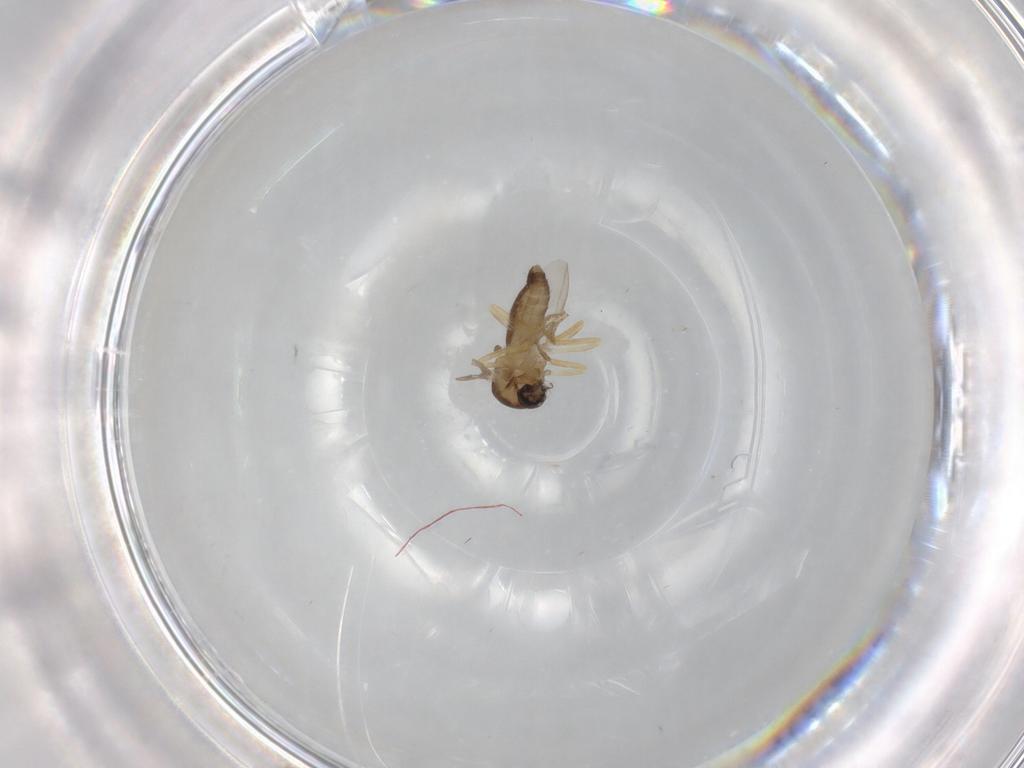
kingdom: Animalia
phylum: Arthropoda
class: Insecta
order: Diptera
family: Ceratopogonidae
